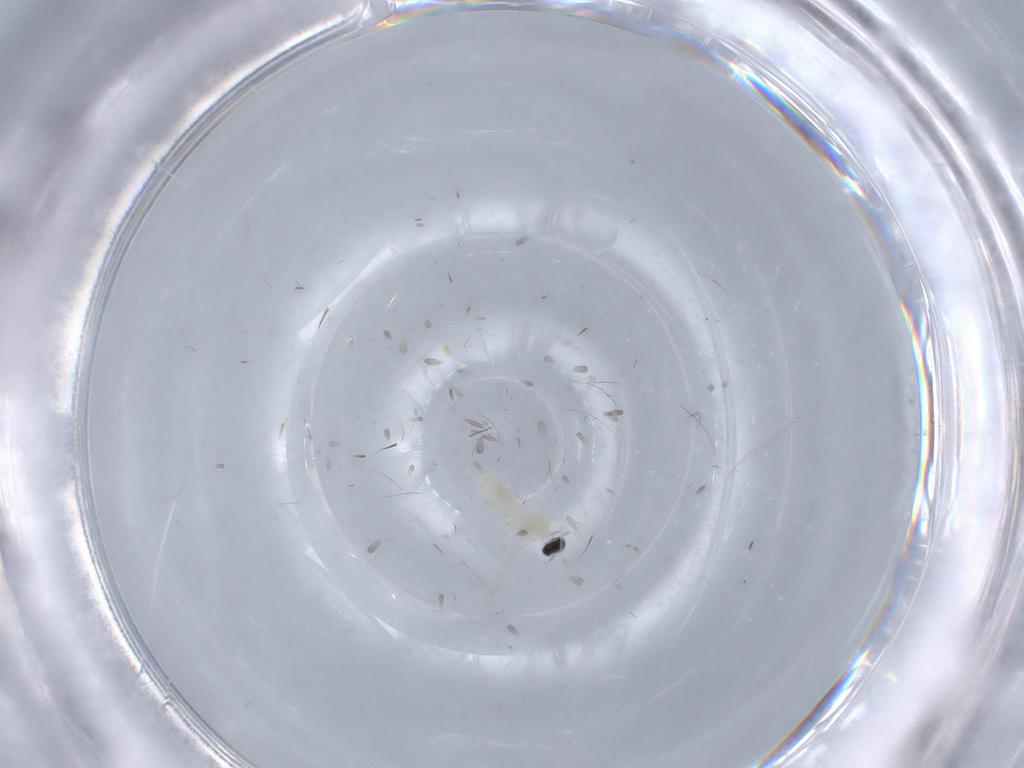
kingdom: Animalia
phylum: Arthropoda
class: Insecta
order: Diptera
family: Cecidomyiidae
